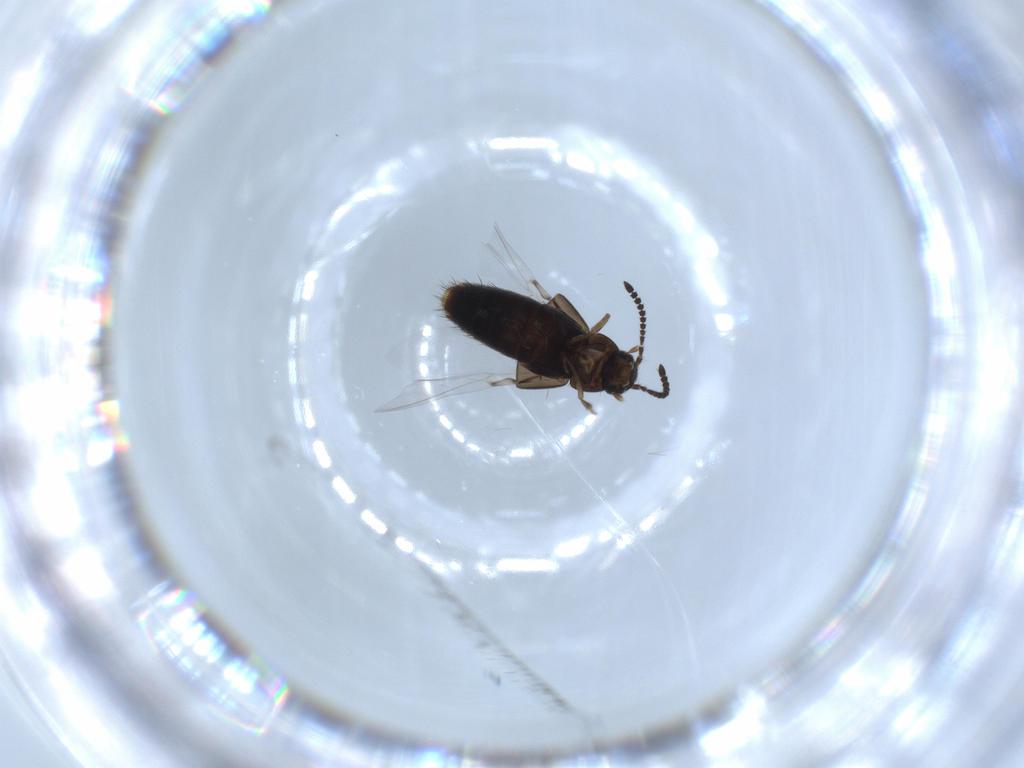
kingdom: Animalia
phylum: Arthropoda
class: Insecta
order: Coleoptera
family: Staphylinidae
